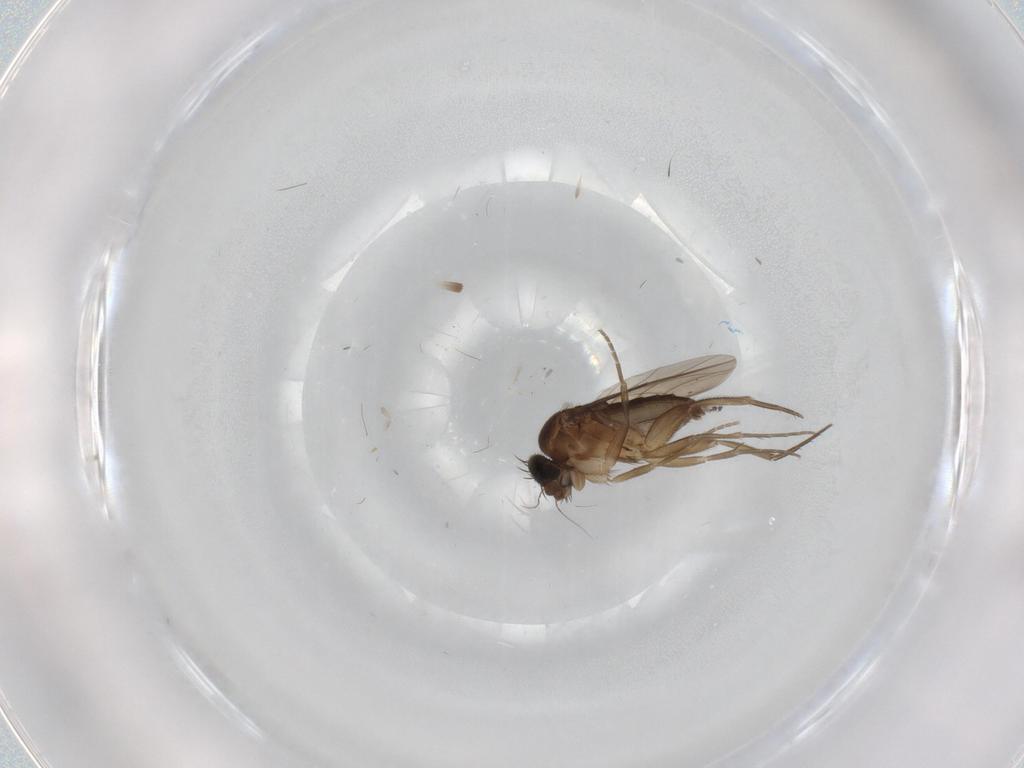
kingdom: Animalia
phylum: Arthropoda
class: Insecta
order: Diptera
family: Phoridae
